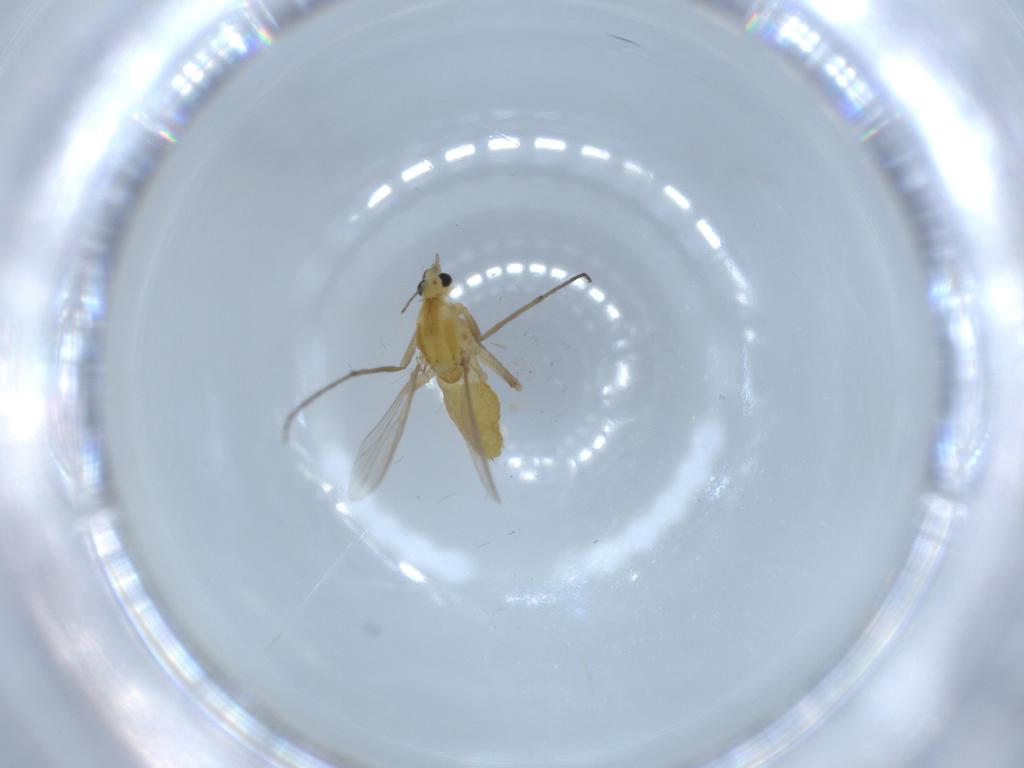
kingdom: Animalia
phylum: Arthropoda
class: Insecta
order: Diptera
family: Chironomidae
